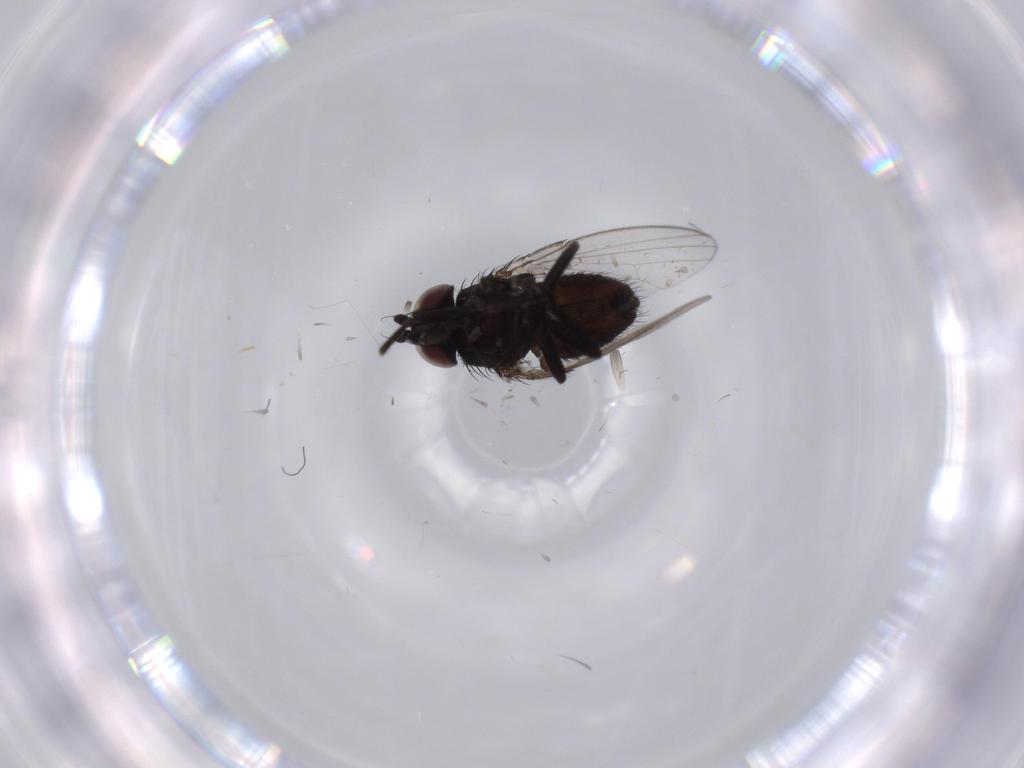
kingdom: Animalia
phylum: Arthropoda
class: Insecta
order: Diptera
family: Milichiidae
